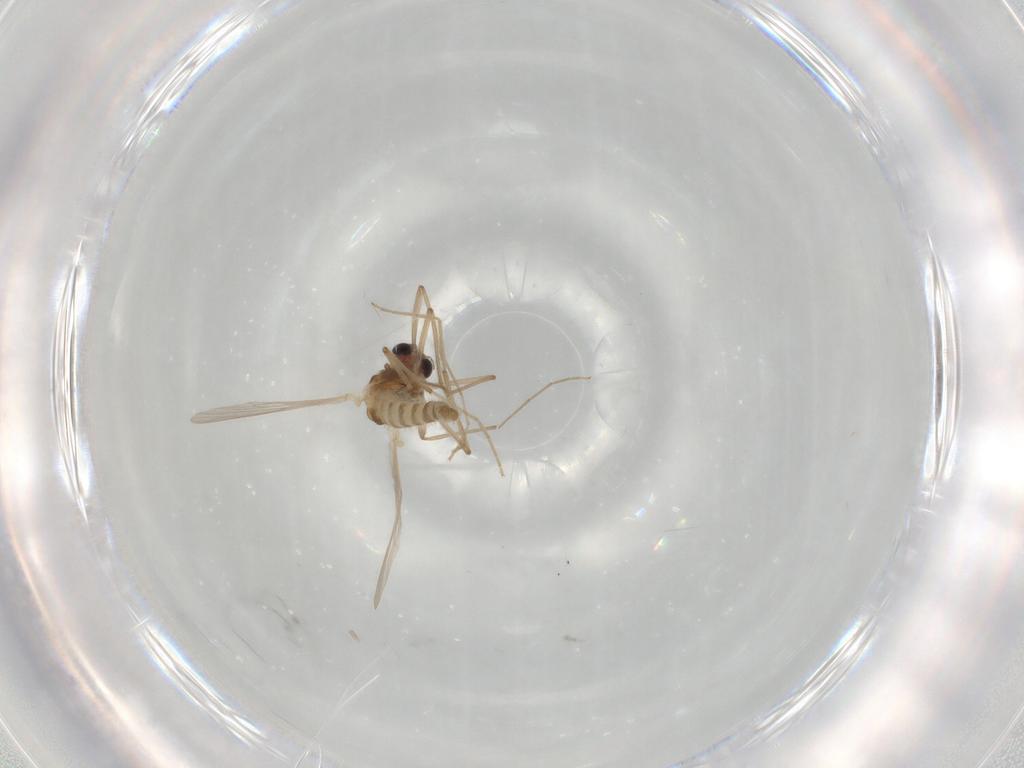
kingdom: Animalia
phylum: Arthropoda
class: Insecta
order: Diptera
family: Chironomidae
